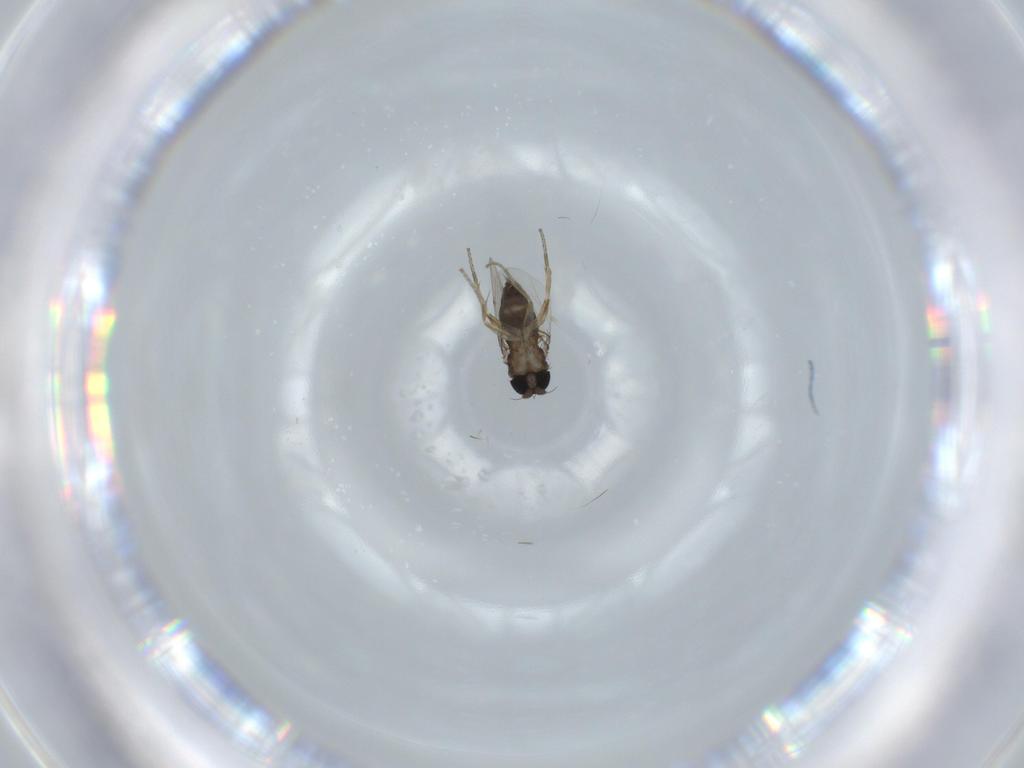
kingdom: Animalia
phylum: Arthropoda
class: Insecta
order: Diptera
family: Phoridae
